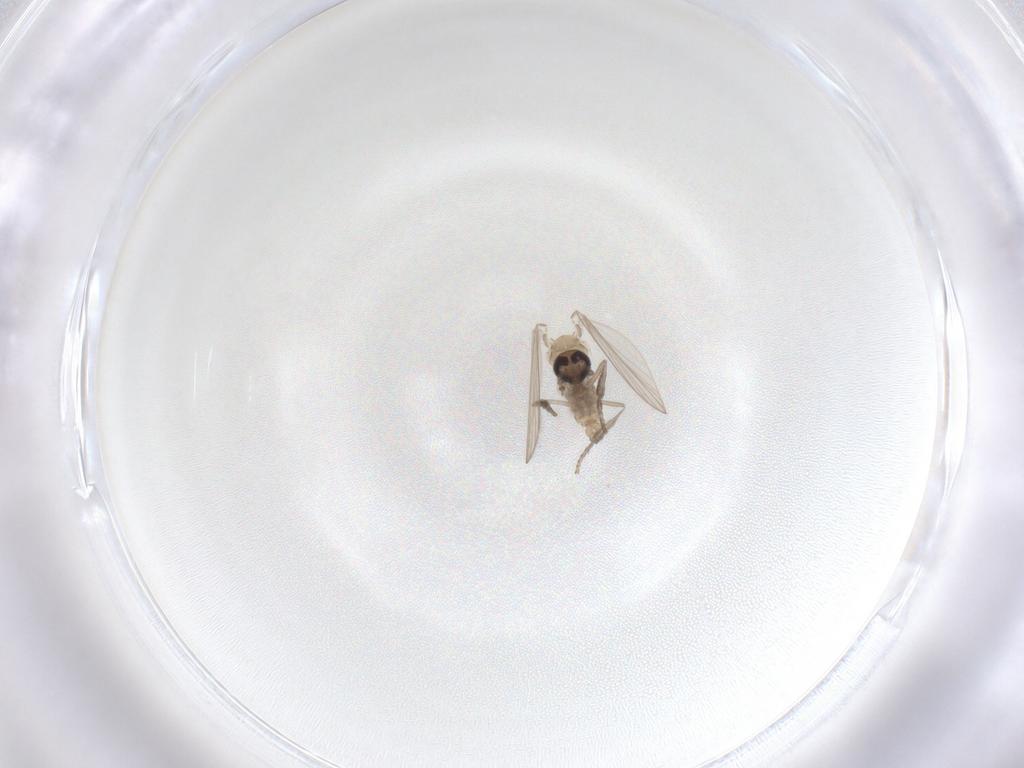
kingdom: Animalia
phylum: Arthropoda
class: Insecta
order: Diptera
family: Psychodidae
